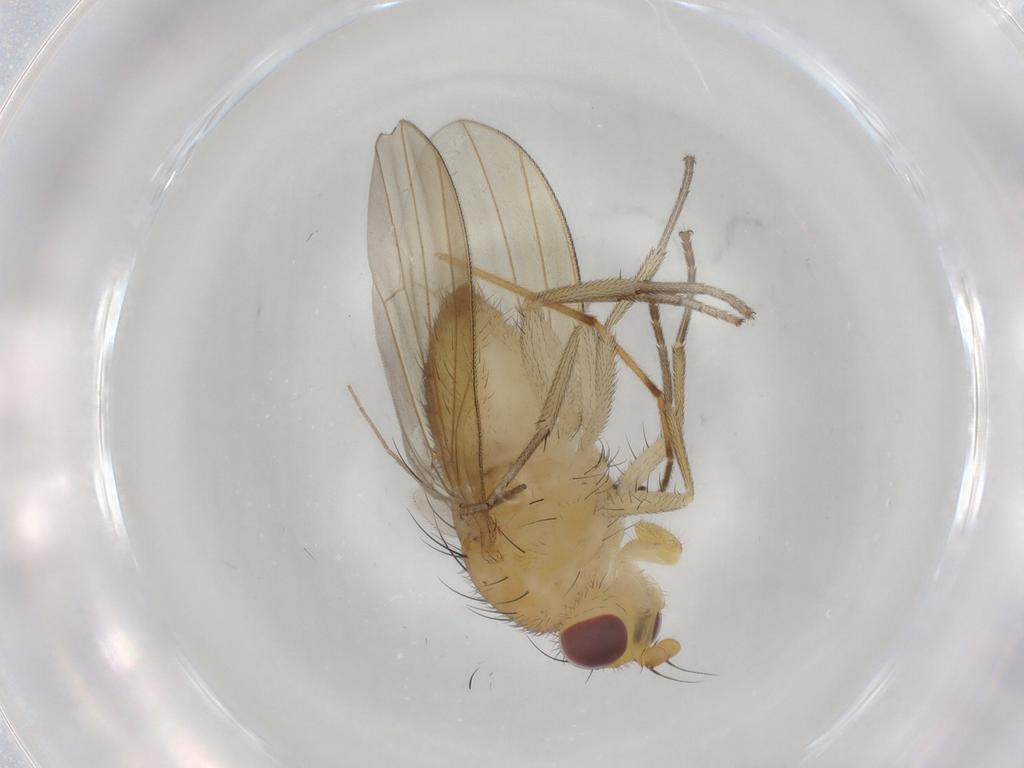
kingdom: Animalia
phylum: Arthropoda
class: Insecta
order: Diptera
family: Chironomidae
